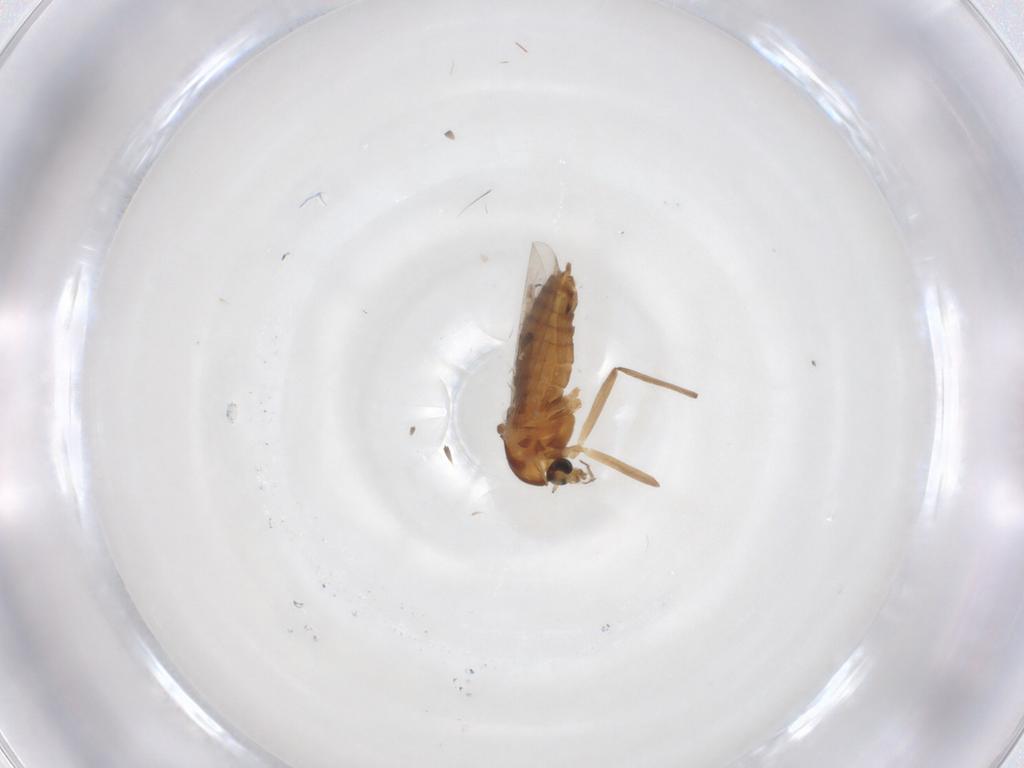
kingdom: Animalia
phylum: Arthropoda
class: Insecta
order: Diptera
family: Chironomidae
